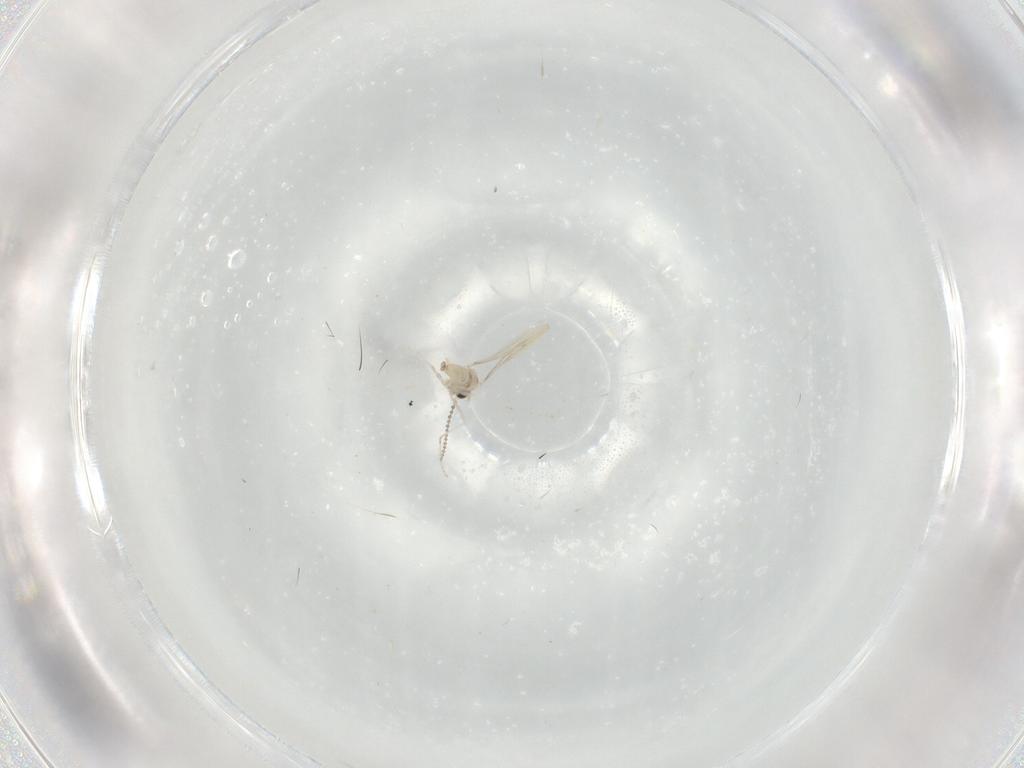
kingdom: Animalia
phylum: Arthropoda
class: Insecta
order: Diptera
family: Cecidomyiidae
